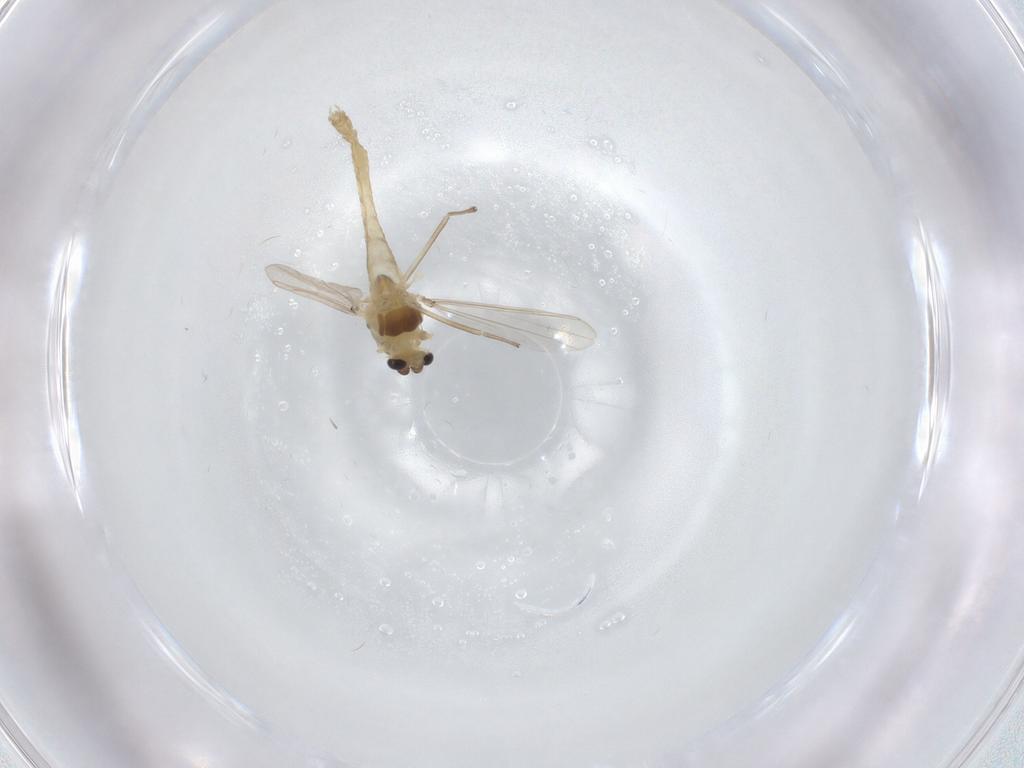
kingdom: Animalia
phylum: Arthropoda
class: Insecta
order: Diptera
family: Chironomidae
